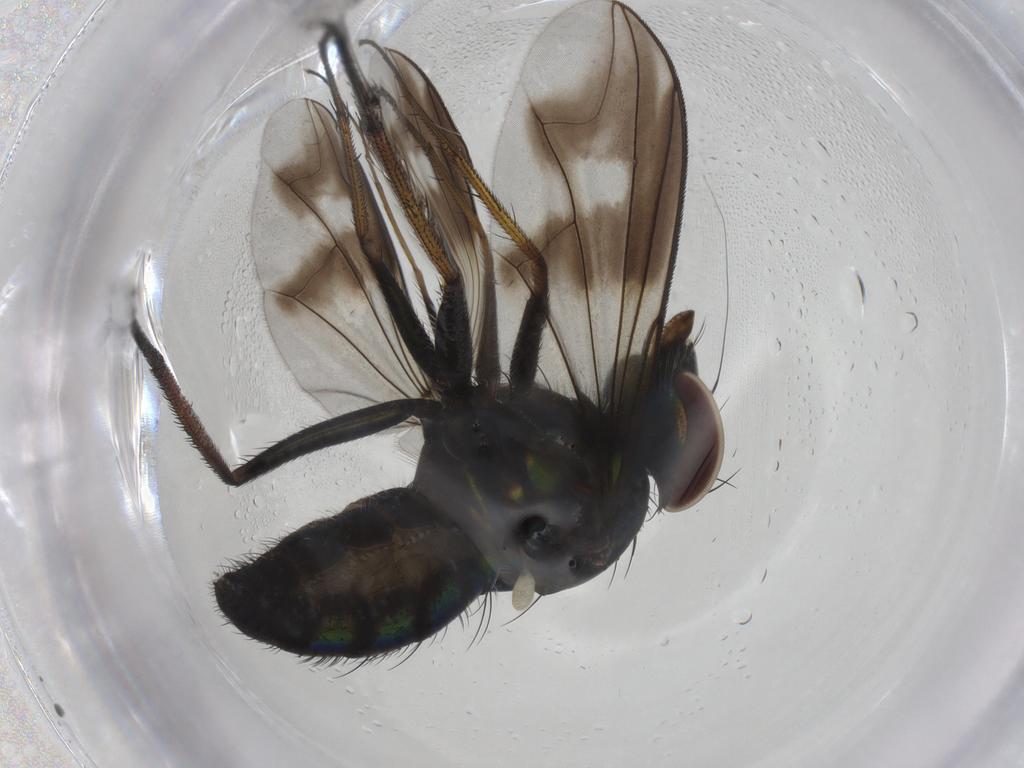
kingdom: Animalia
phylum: Arthropoda
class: Insecta
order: Diptera
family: Dolichopodidae
